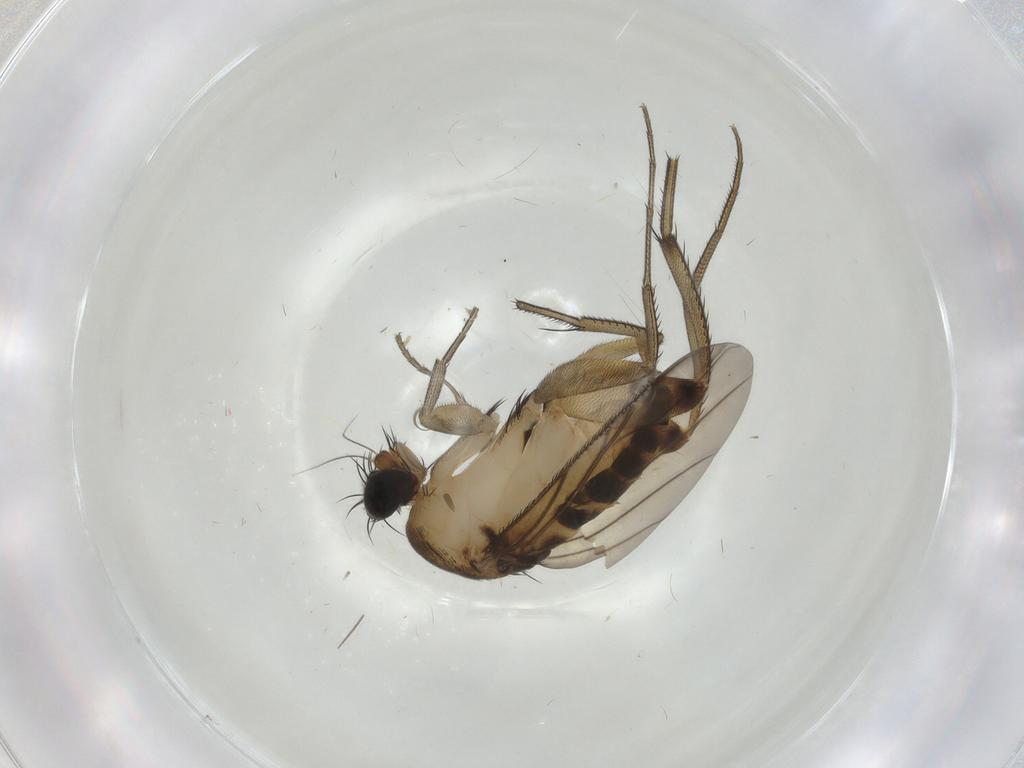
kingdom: Animalia
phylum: Arthropoda
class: Insecta
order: Diptera
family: Phoridae
